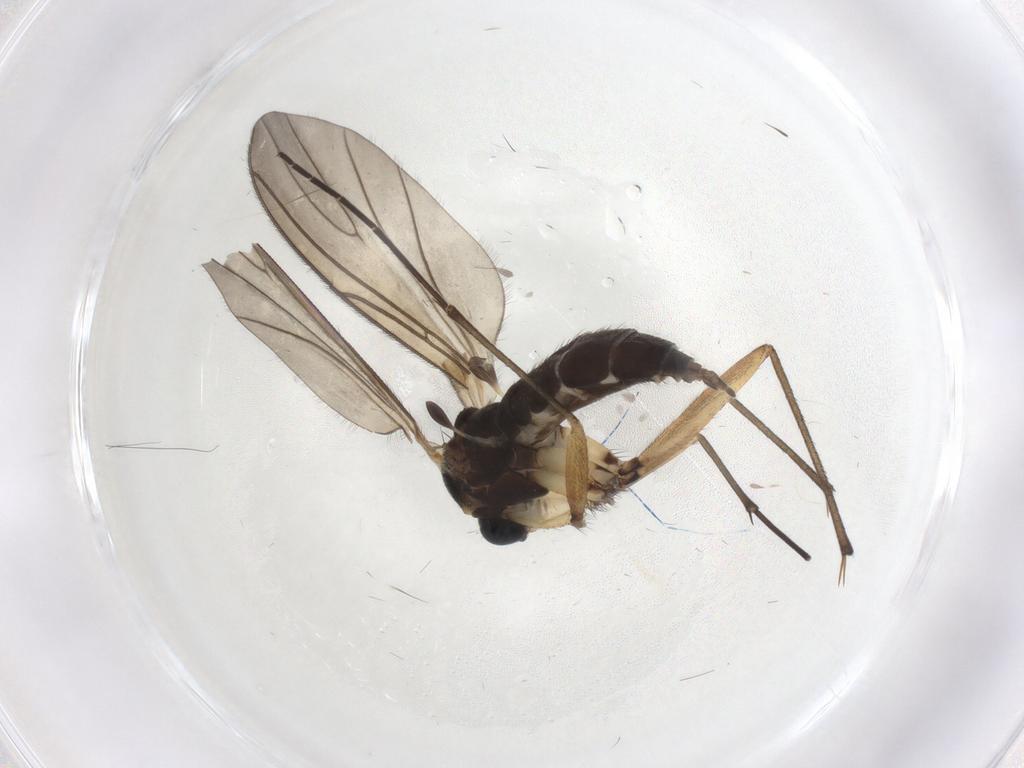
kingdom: Animalia
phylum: Arthropoda
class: Insecta
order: Diptera
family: Sciaridae
